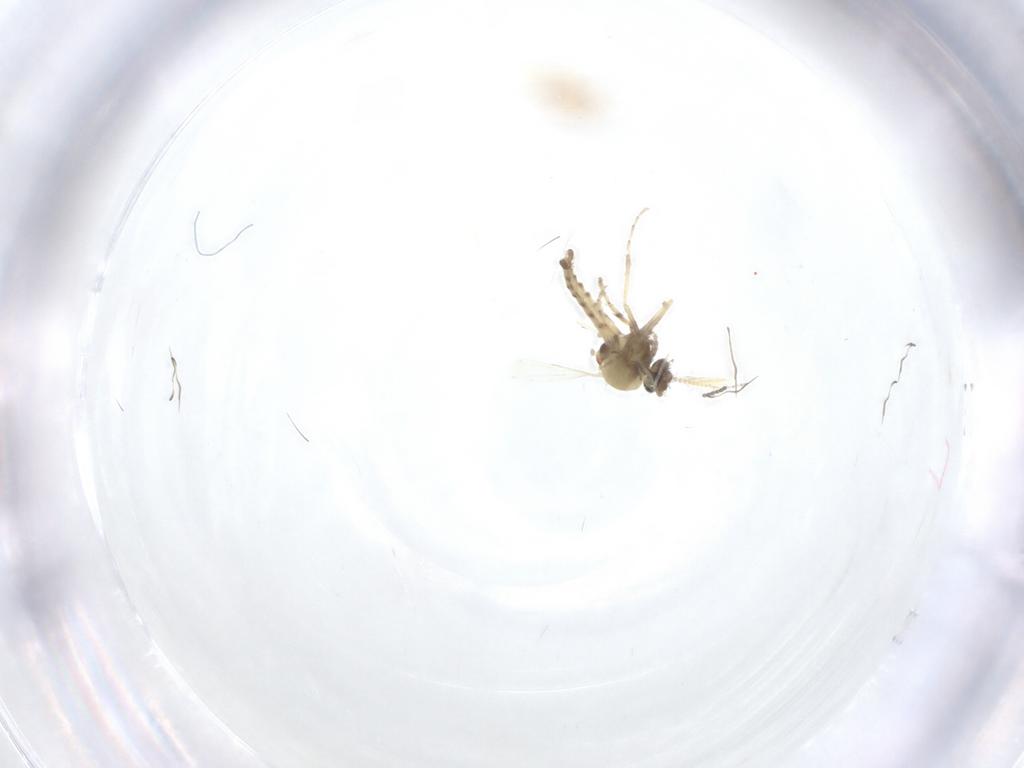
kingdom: Animalia
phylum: Arthropoda
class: Insecta
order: Diptera
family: Ceratopogonidae
